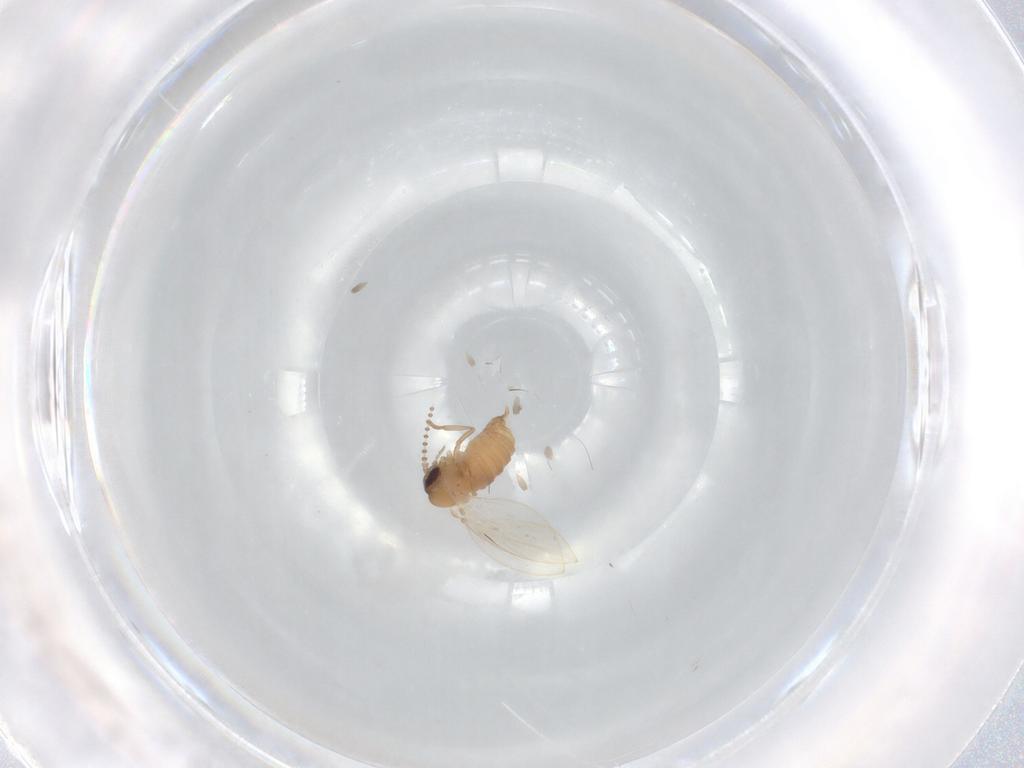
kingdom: Animalia
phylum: Arthropoda
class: Insecta
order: Diptera
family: Psychodidae
